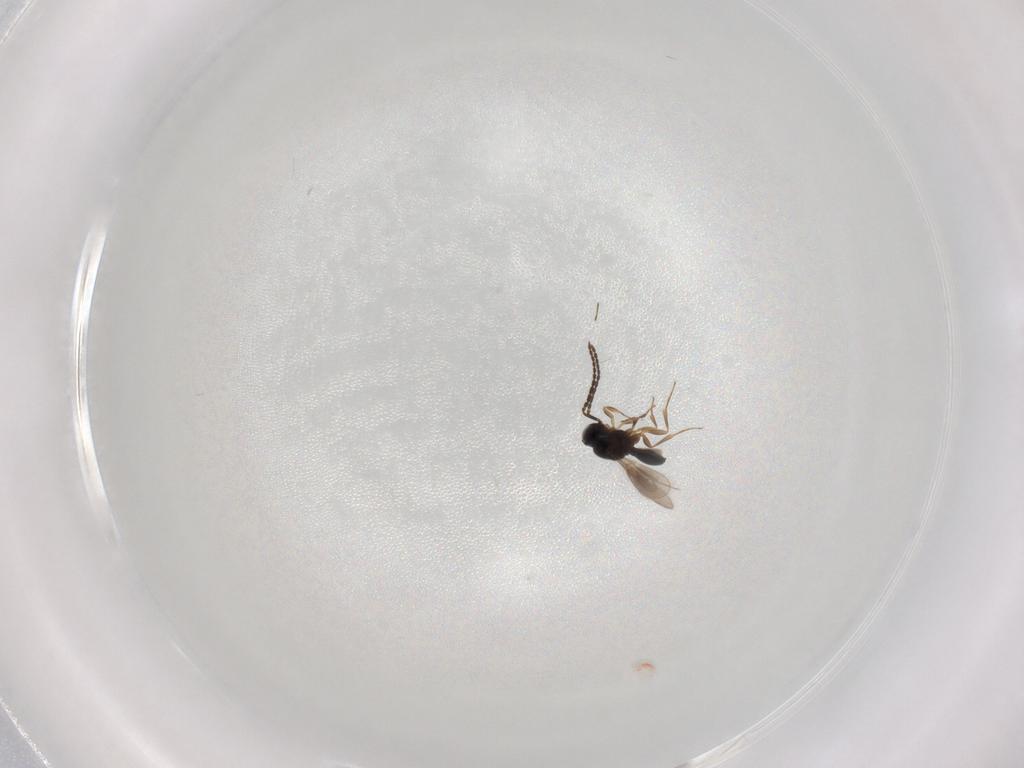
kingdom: Animalia
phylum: Arthropoda
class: Insecta
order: Hymenoptera
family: Scelionidae
